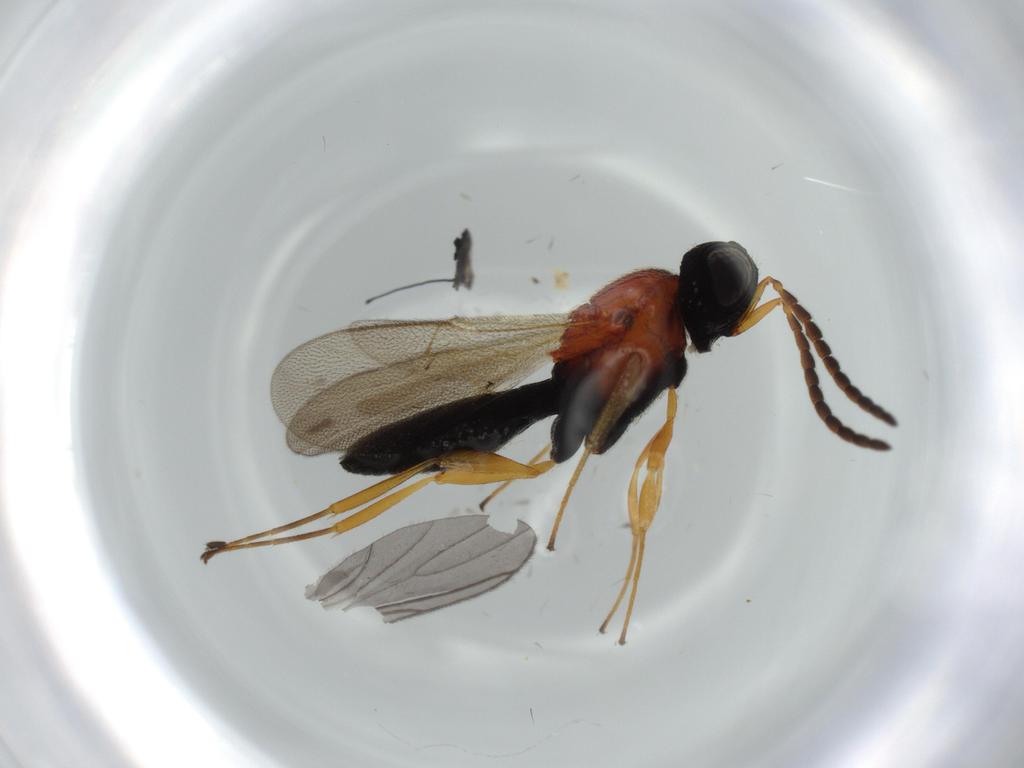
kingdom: Animalia
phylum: Arthropoda
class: Insecta
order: Hymenoptera
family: Scelionidae
